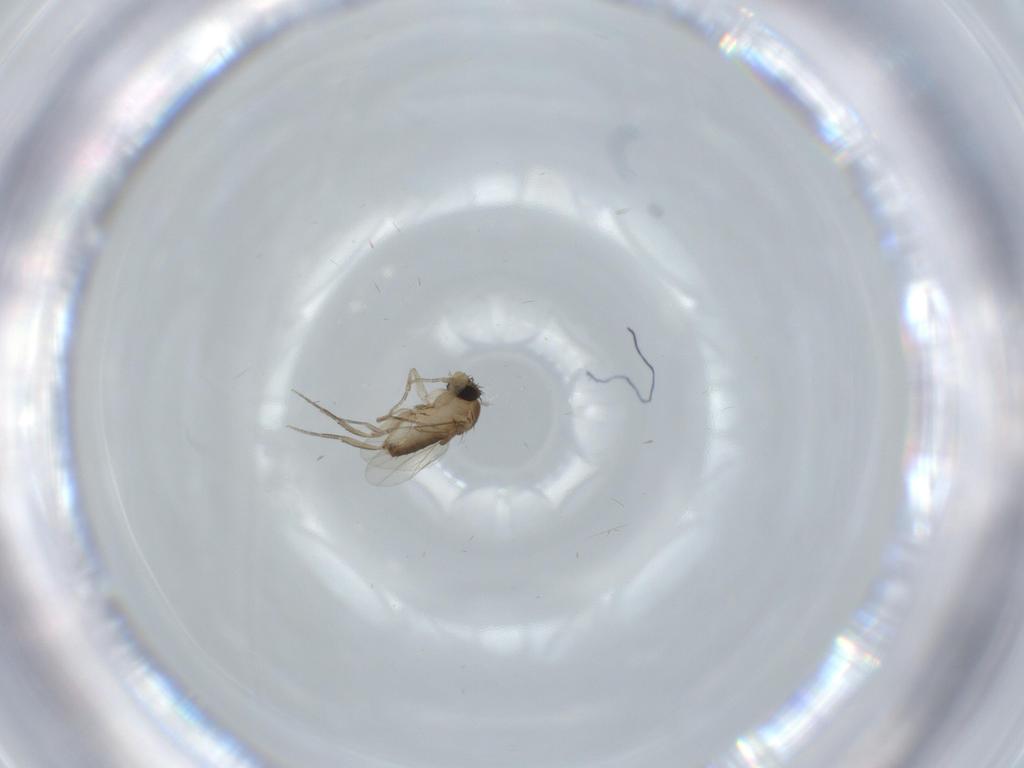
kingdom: Animalia
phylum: Arthropoda
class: Insecta
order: Diptera
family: Phoridae
